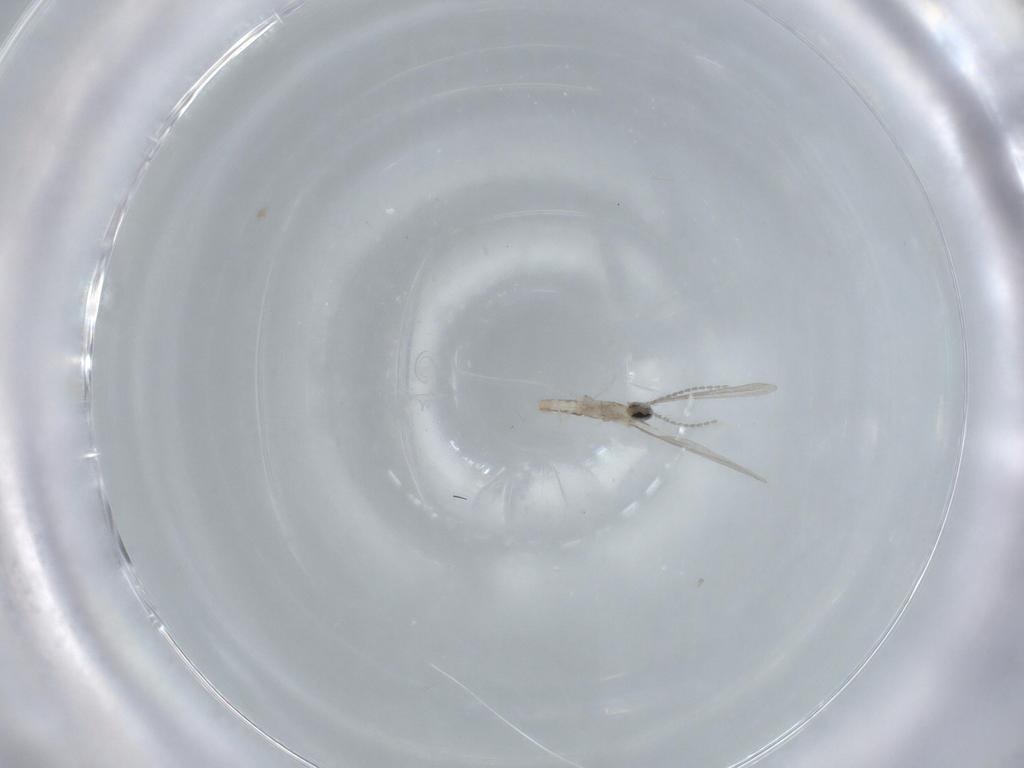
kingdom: Animalia
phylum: Arthropoda
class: Insecta
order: Diptera
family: Cecidomyiidae
